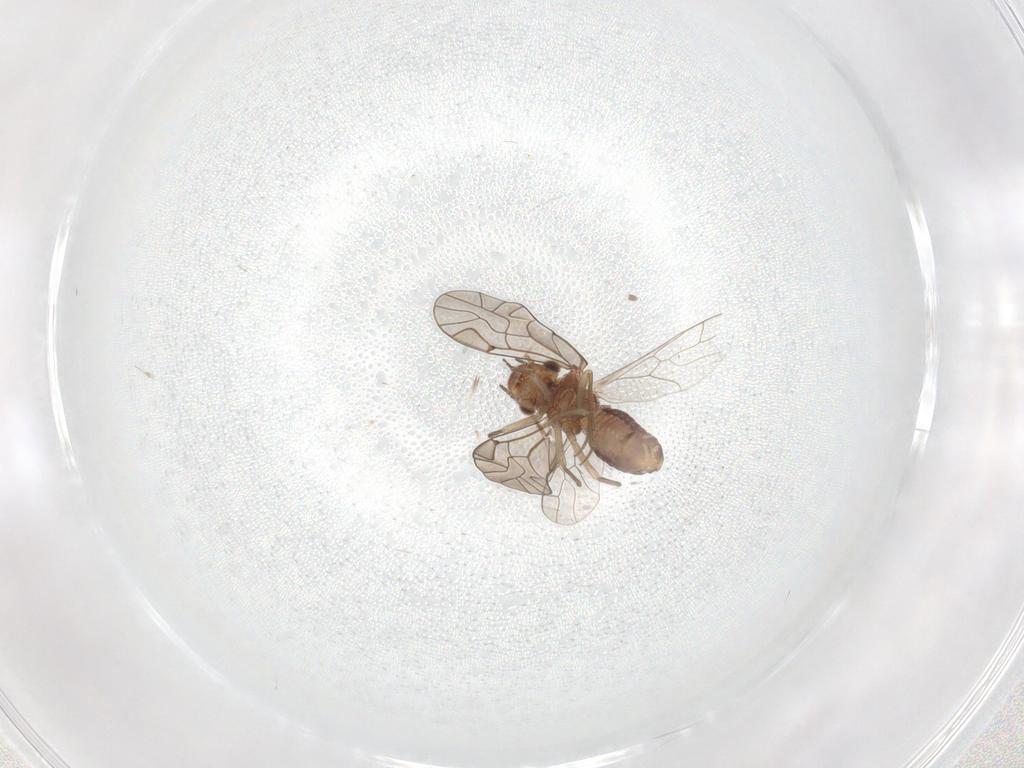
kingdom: Animalia
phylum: Arthropoda
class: Insecta
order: Psocodea
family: Lachesillidae
